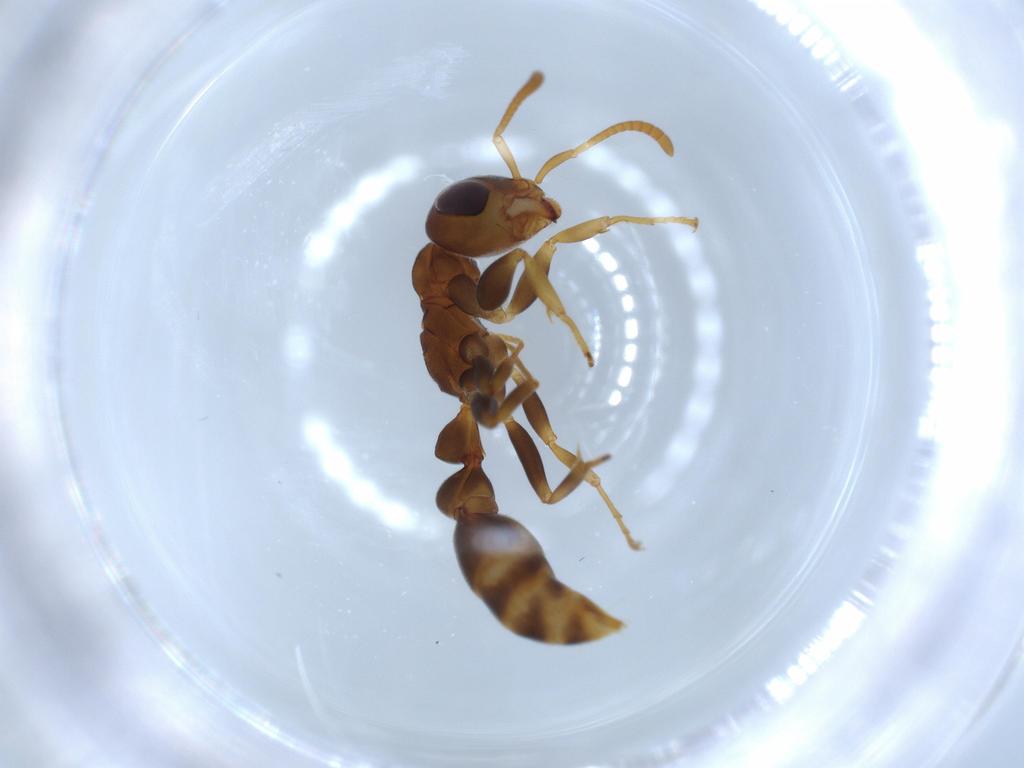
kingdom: Animalia
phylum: Arthropoda
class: Insecta
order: Hymenoptera
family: Formicidae
